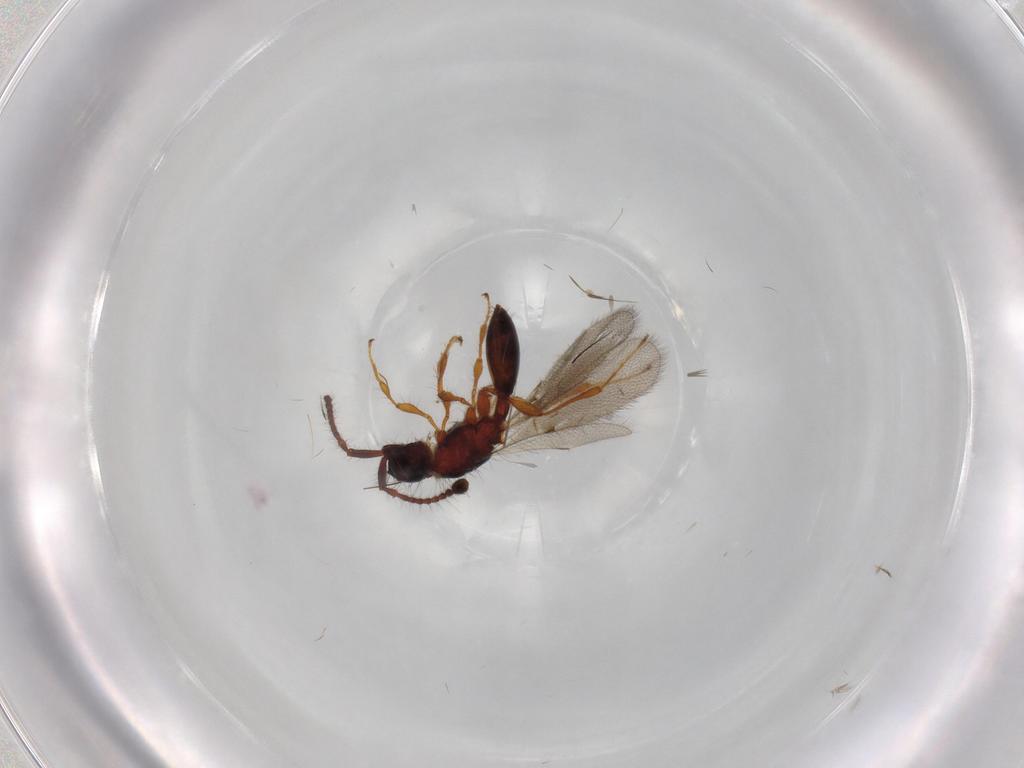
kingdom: Animalia
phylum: Arthropoda
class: Insecta
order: Hymenoptera
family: Diapriidae
